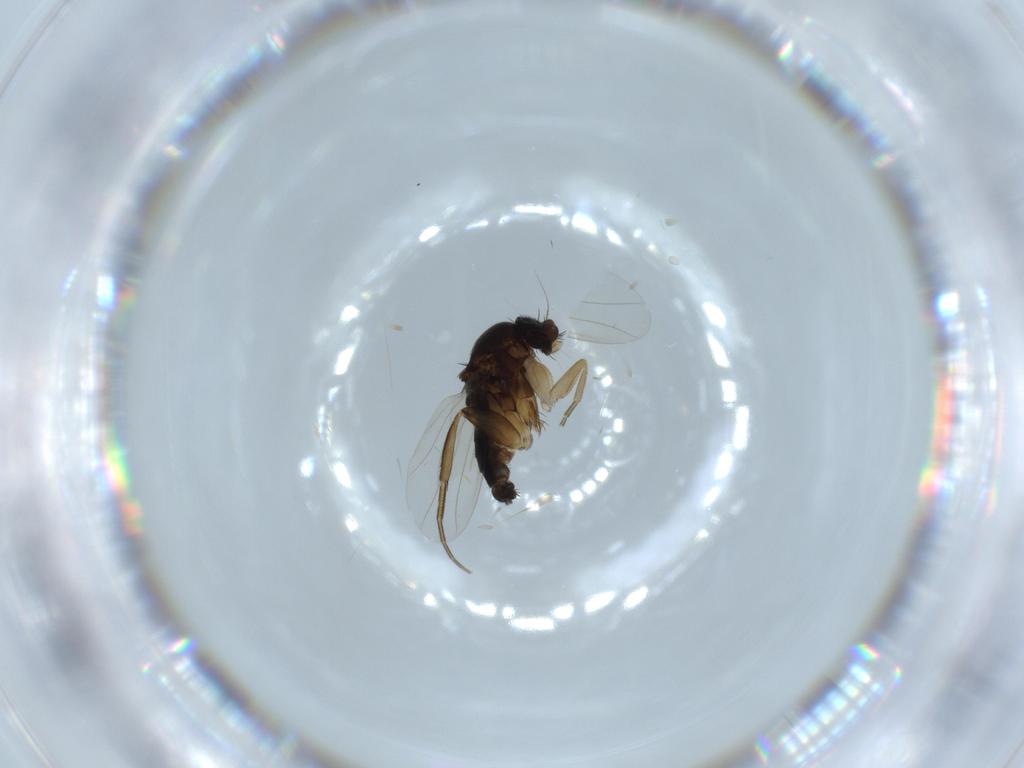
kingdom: Animalia
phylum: Arthropoda
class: Insecta
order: Diptera
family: Phoridae
